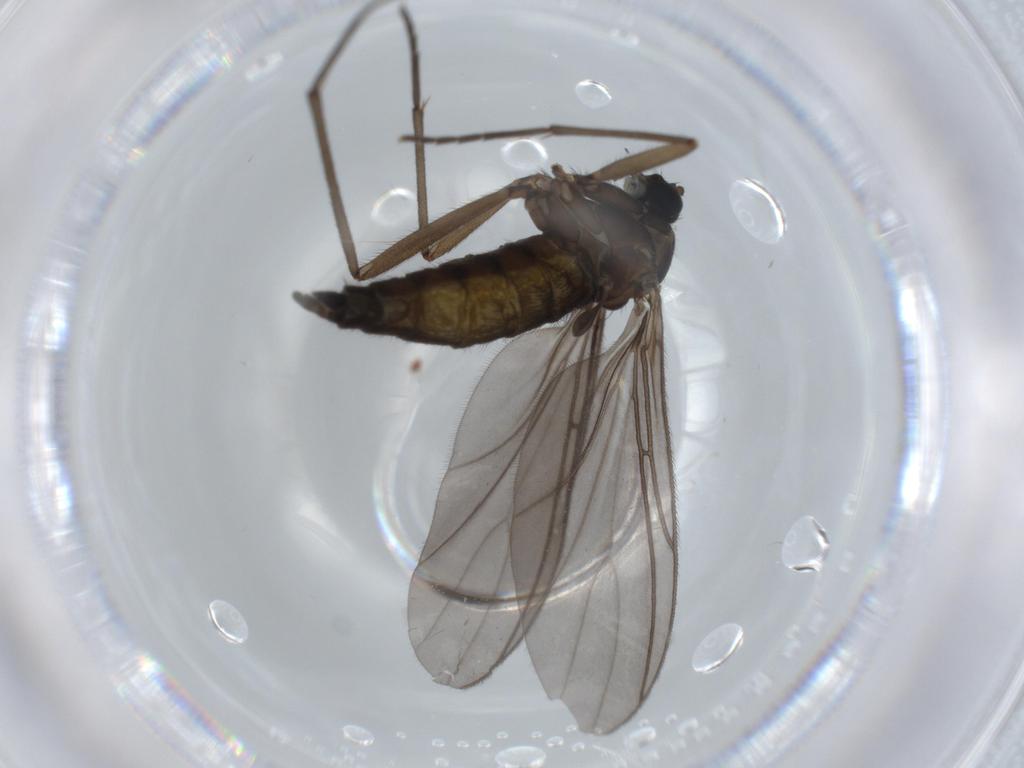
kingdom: Animalia
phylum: Arthropoda
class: Insecta
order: Diptera
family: Sciaridae
